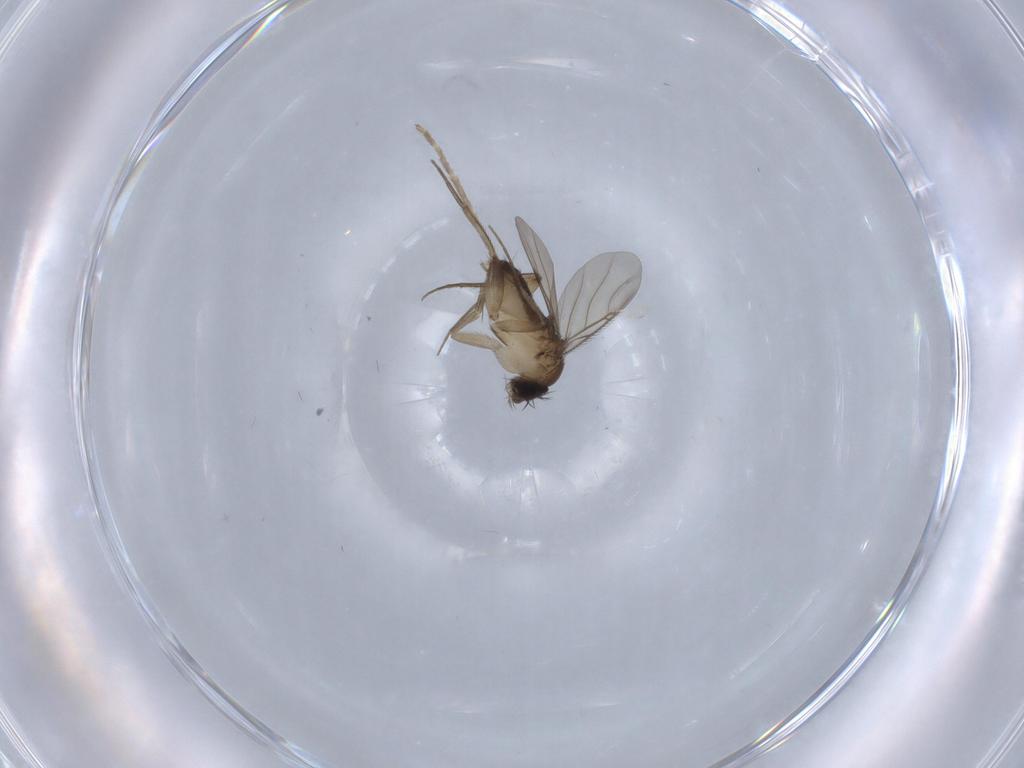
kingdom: Animalia
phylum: Arthropoda
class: Insecta
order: Diptera
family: Phoridae
